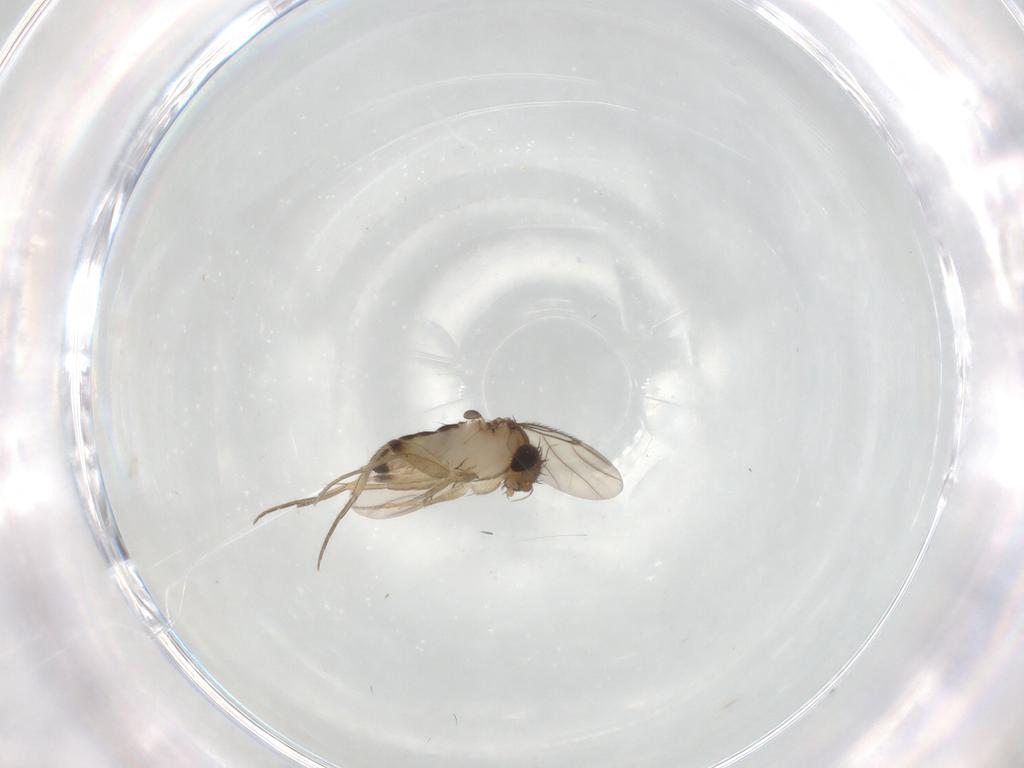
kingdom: Animalia
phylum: Arthropoda
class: Insecta
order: Diptera
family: Phoridae
